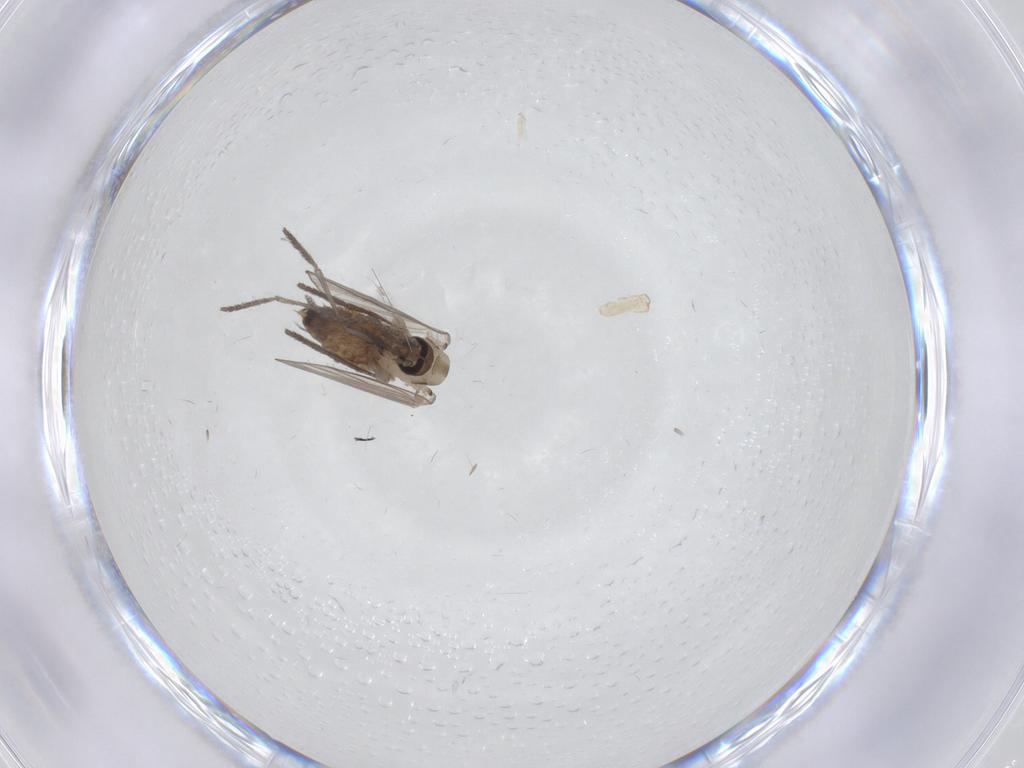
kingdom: Animalia
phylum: Arthropoda
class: Insecta
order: Diptera
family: Psychodidae
